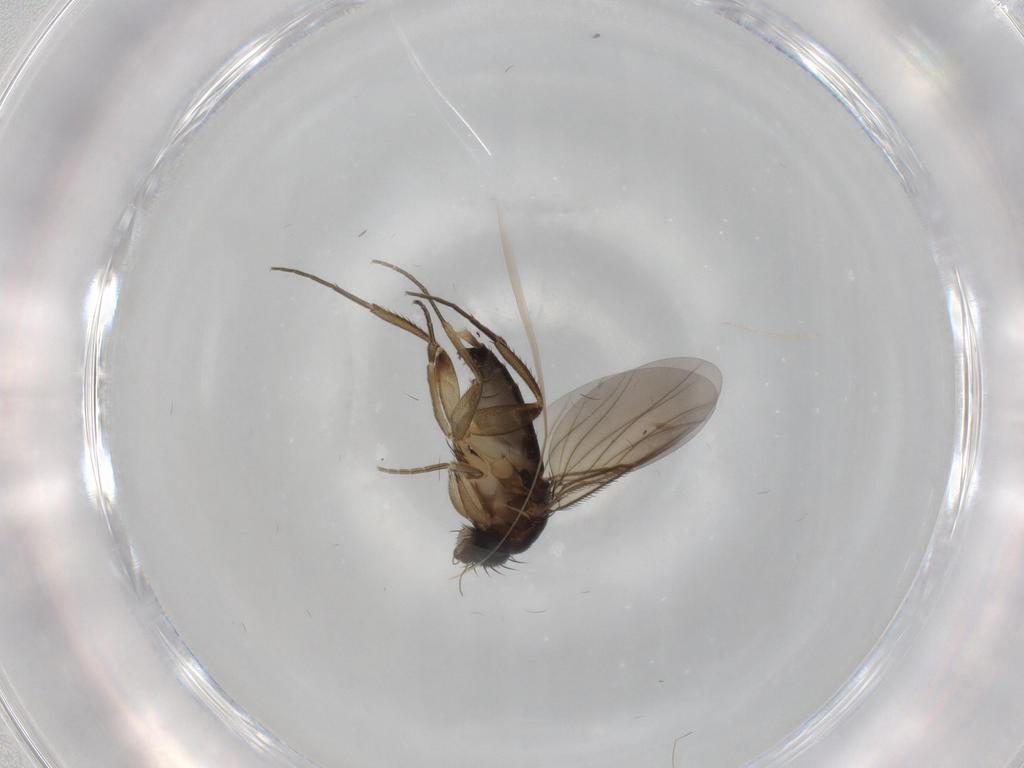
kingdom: Animalia
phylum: Arthropoda
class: Insecta
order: Diptera
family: Phoridae
